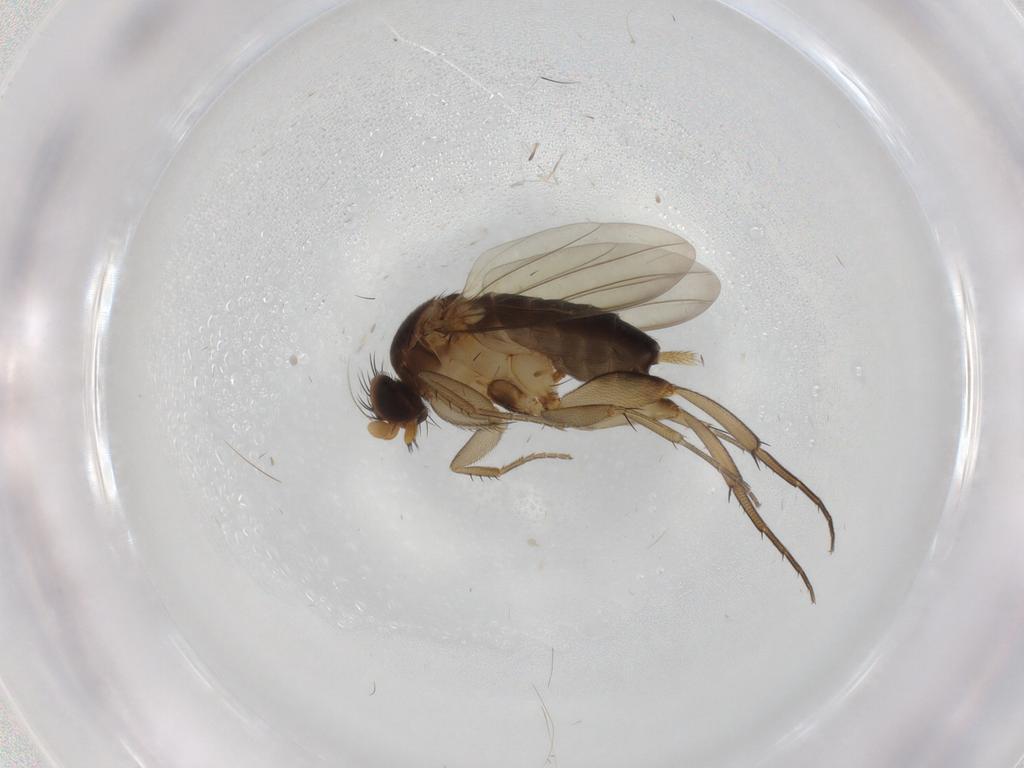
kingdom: Animalia
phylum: Arthropoda
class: Insecta
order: Diptera
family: Phoridae
